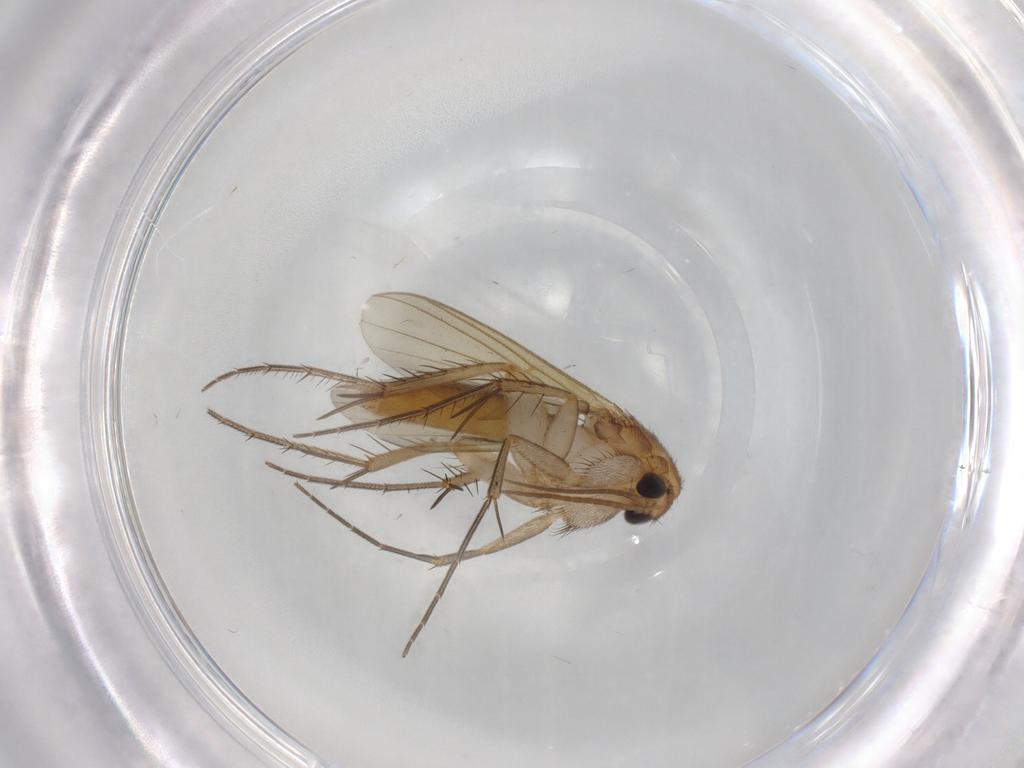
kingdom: Animalia
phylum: Arthropoda
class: Insecta
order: Diptera
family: Mycetophilidae
